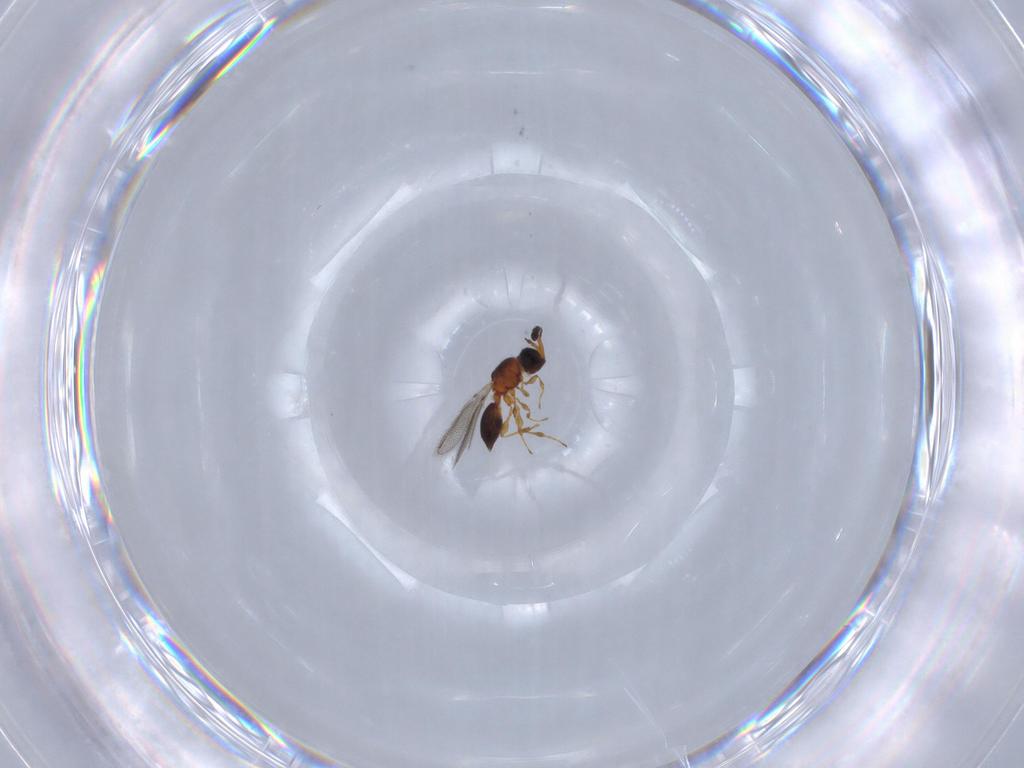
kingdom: Animalia
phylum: Arthropoda
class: Insecta
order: Hymenoptera
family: Diapriidae
